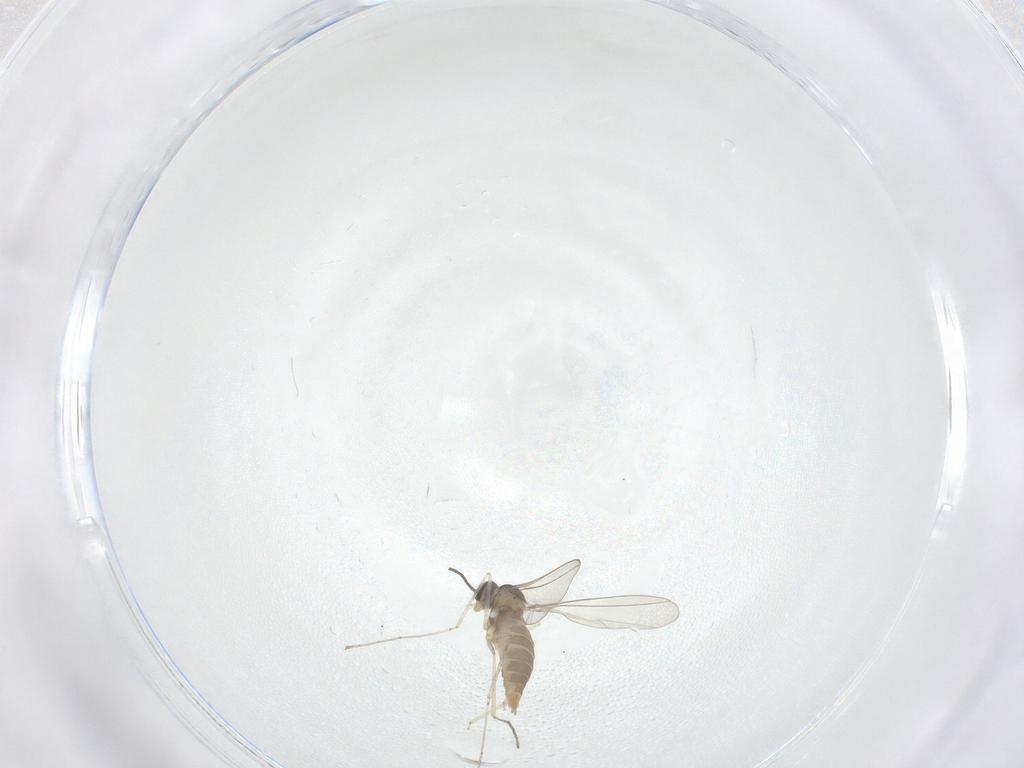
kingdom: Animalia
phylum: Arthropoda
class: Insecta
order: Diptera
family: Cecidomyiidae
